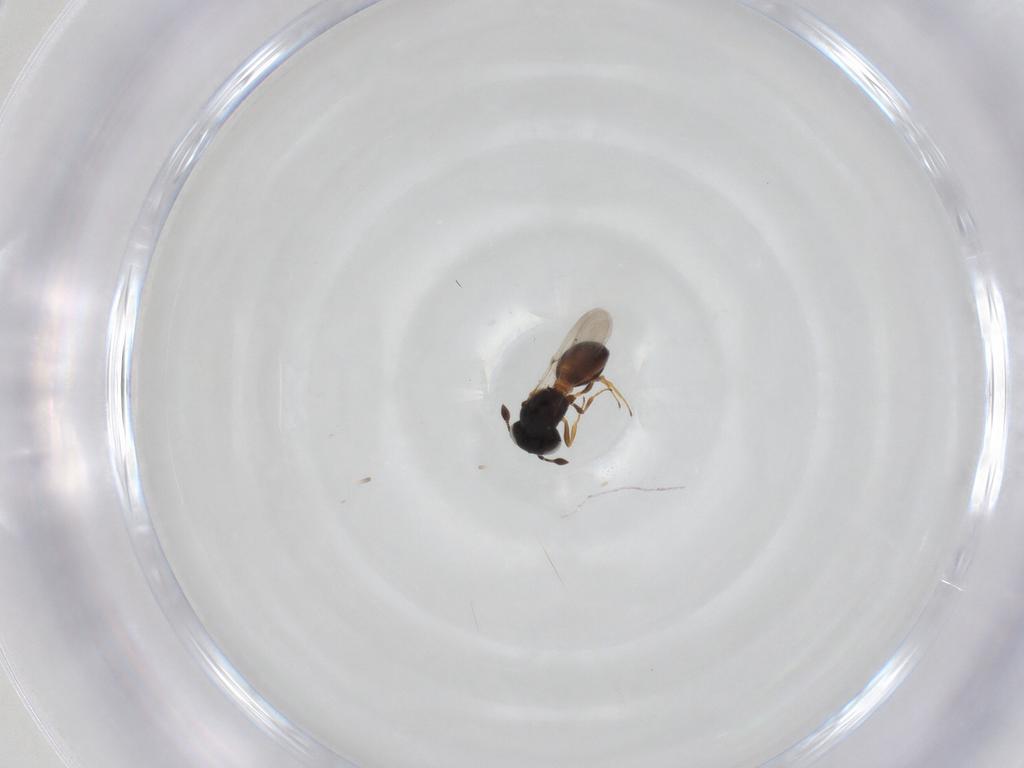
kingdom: Animalia
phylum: Arthropoda
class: Arachnida
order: Araneae
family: Pholcidae
